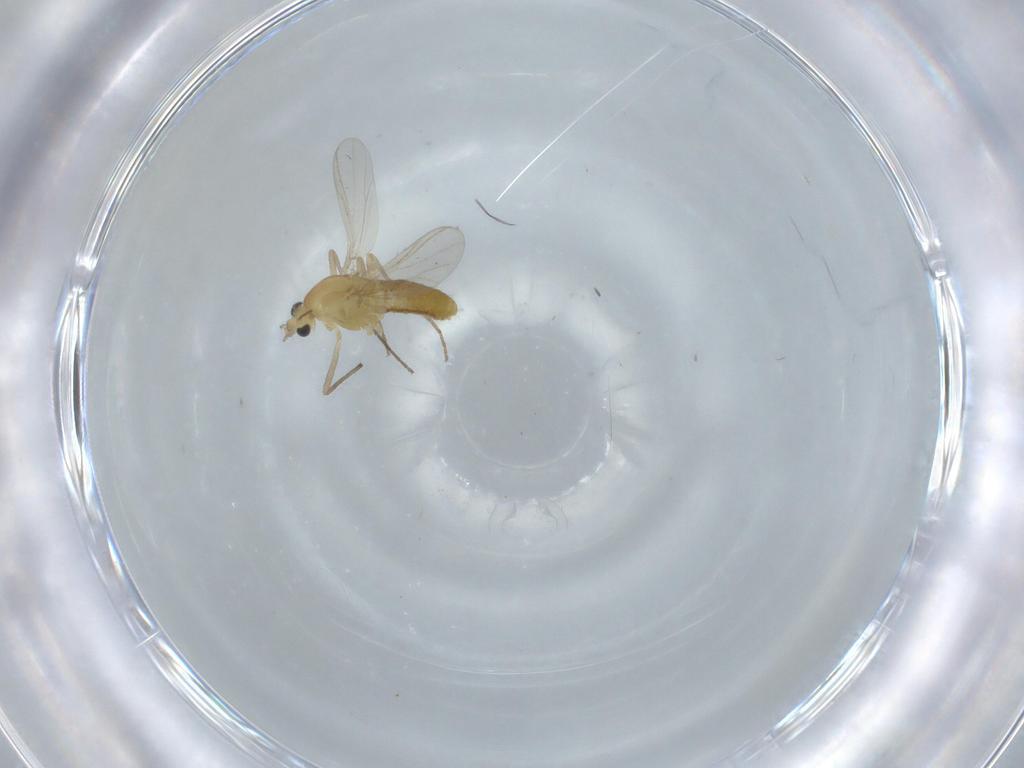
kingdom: Animalia
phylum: Arthropoda
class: Insecta
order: Diptera
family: Chironomidae
